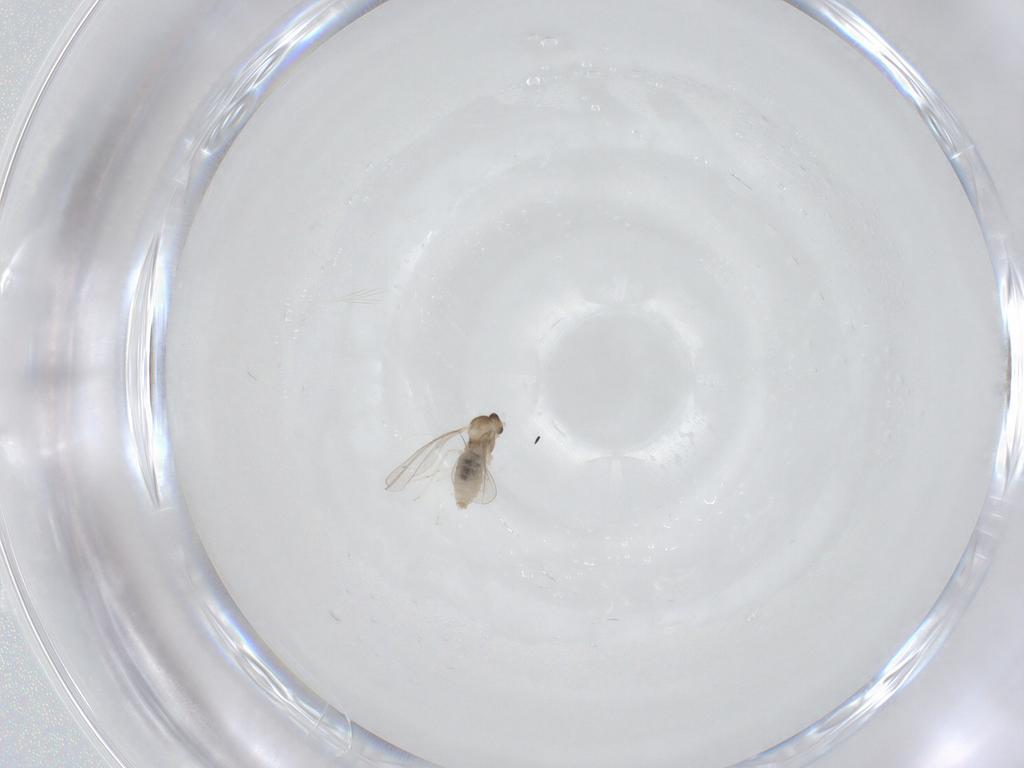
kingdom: Animalia
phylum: Arthropoda
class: Insecta
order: Diptera
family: Cecidomyiidae
